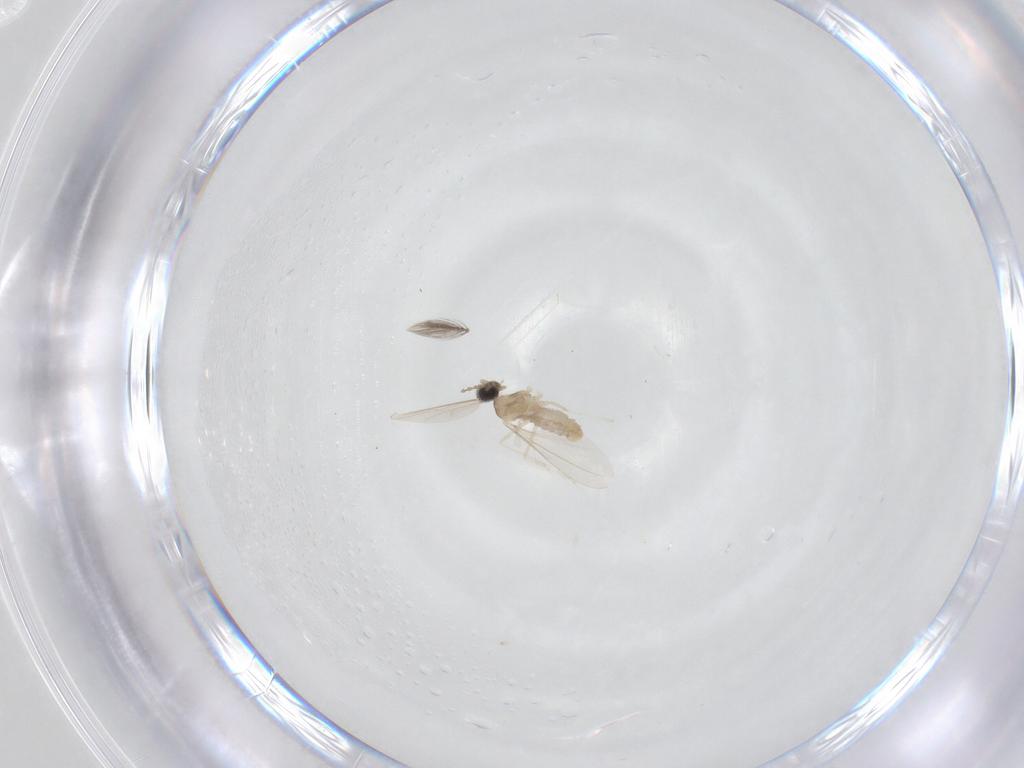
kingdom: Animalia
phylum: Arthropoda
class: Insecta
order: Diptera
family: Cecidomyiidae
